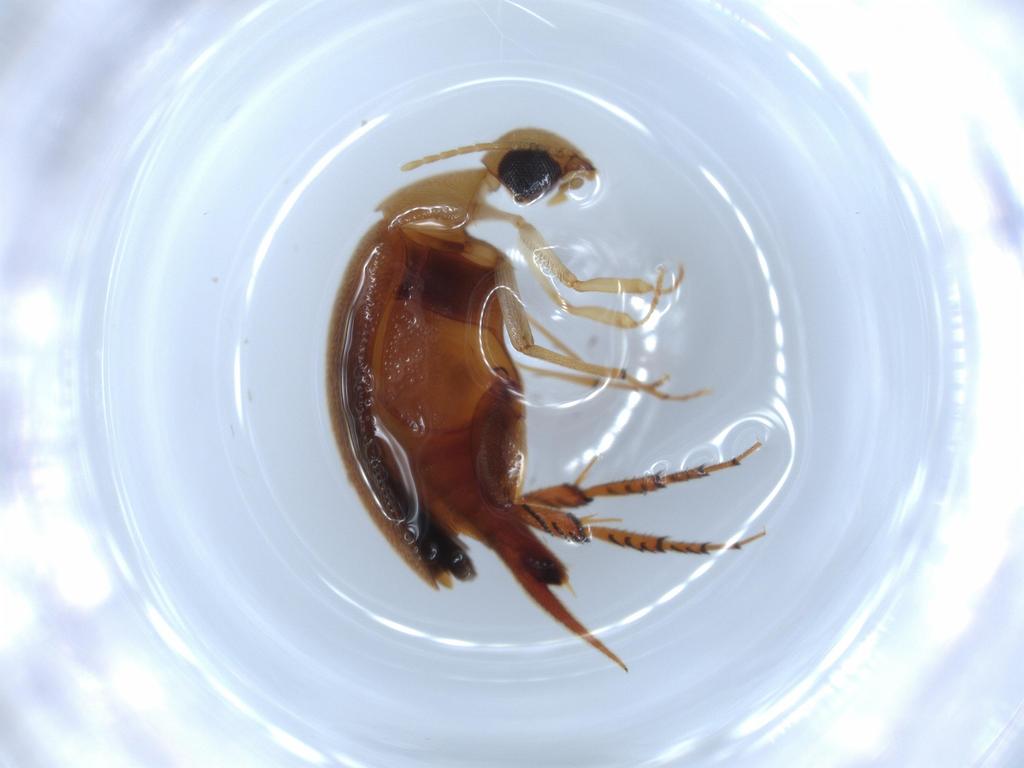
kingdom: Animalia
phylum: Arthropoda
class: Insecta
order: Coleoptera
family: Mordellidae
